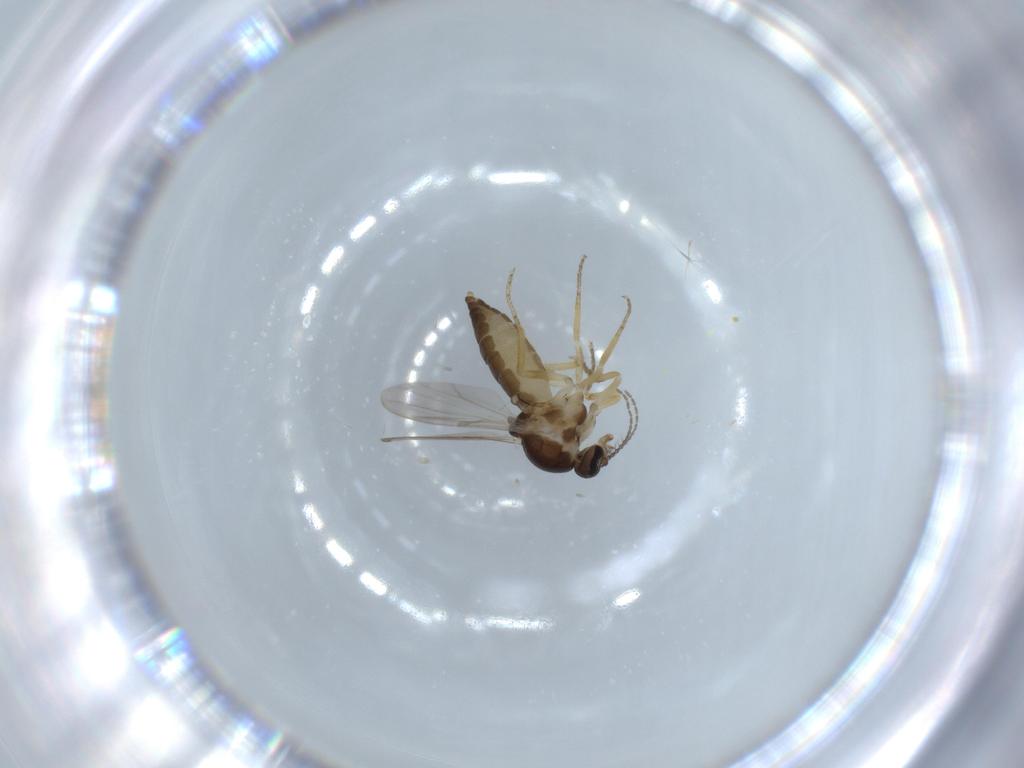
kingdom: Animalia
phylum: Arthropoda
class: Insecta
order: Diptera
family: Ceratopogonidae
